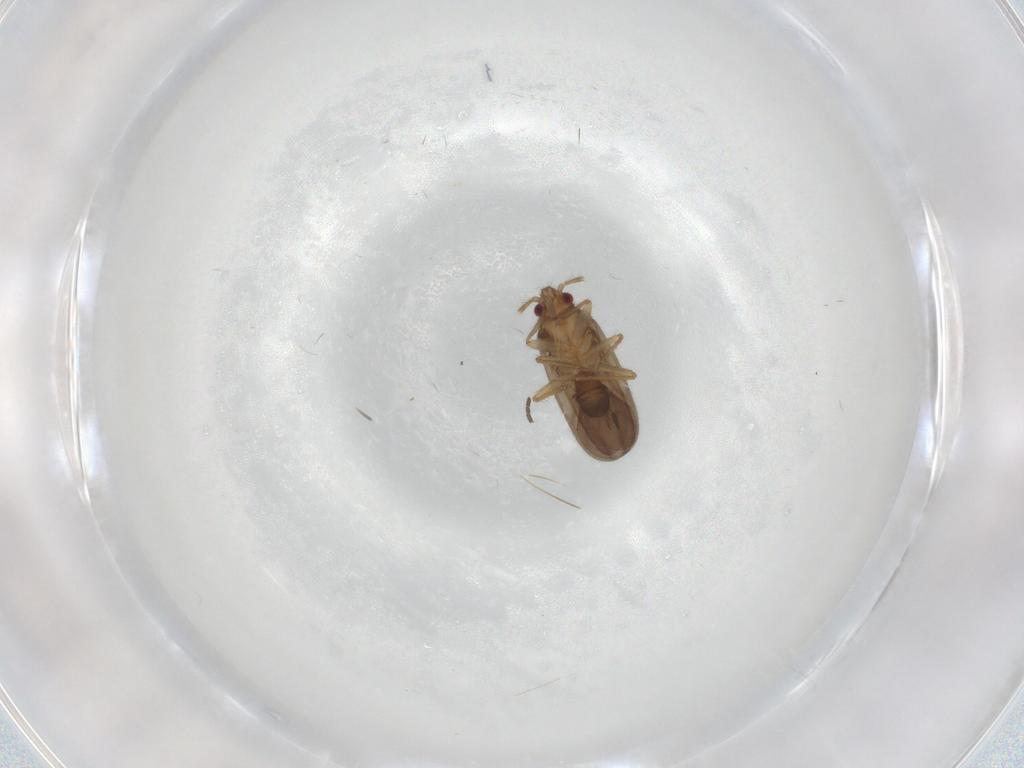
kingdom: Animalia
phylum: Arthropoda
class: Insecta
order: Hemiptera
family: Ceratocombidae
